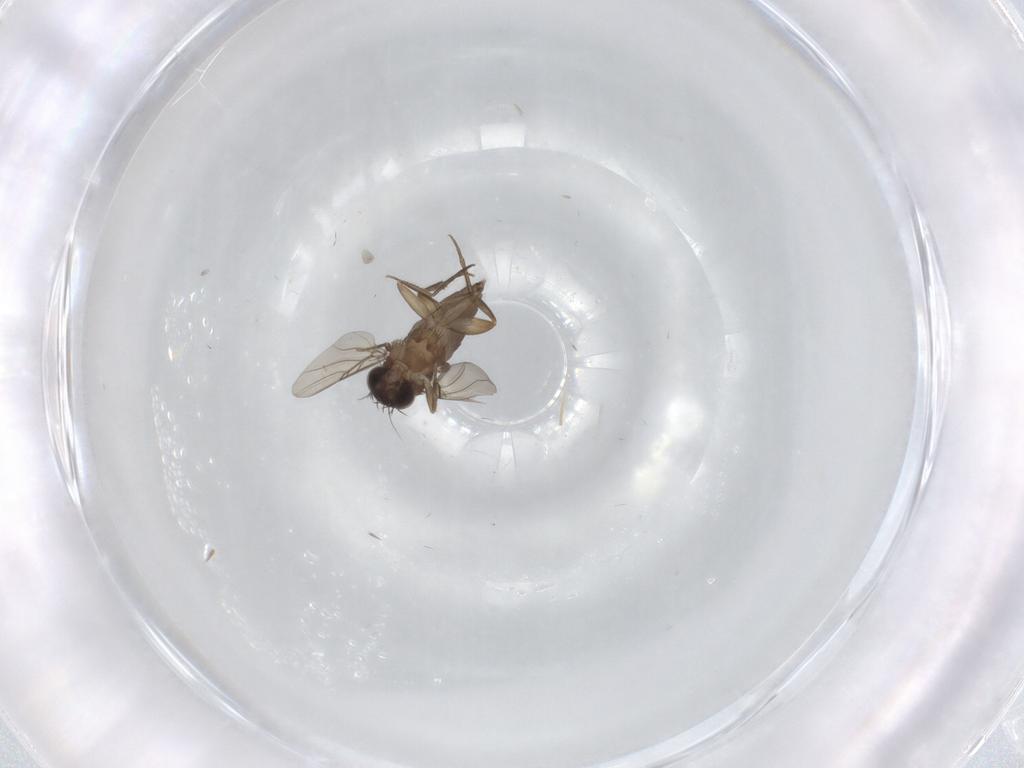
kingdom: Animalia
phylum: Arthropoda
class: Insecta
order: Diptera
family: Phoridae
